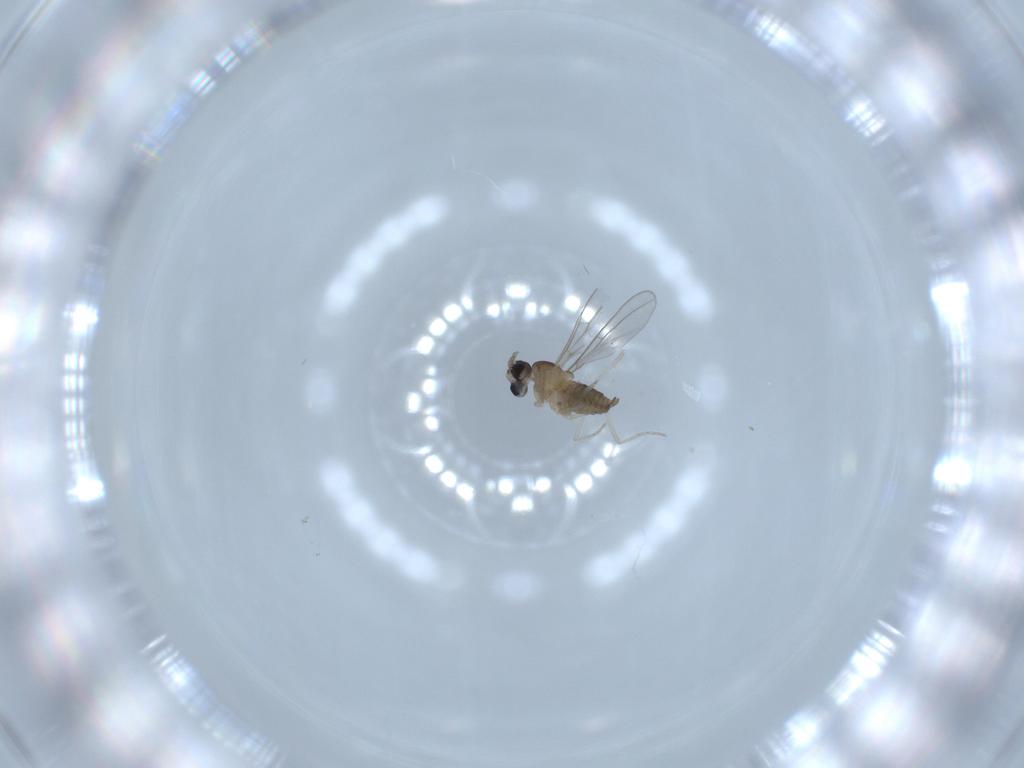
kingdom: Animalia
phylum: Arthropoda
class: Insecta
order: Diptera
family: Cecidomyiidae
